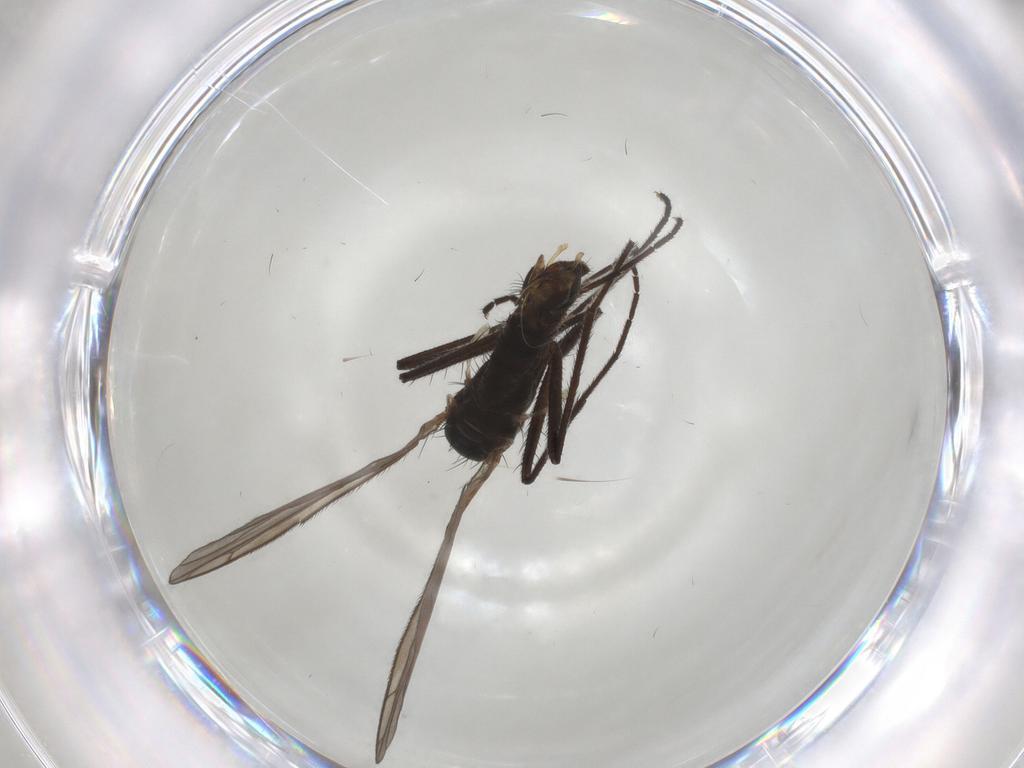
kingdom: Animalia
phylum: Arthropoda
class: Insecta
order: Diptera
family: Empididae
